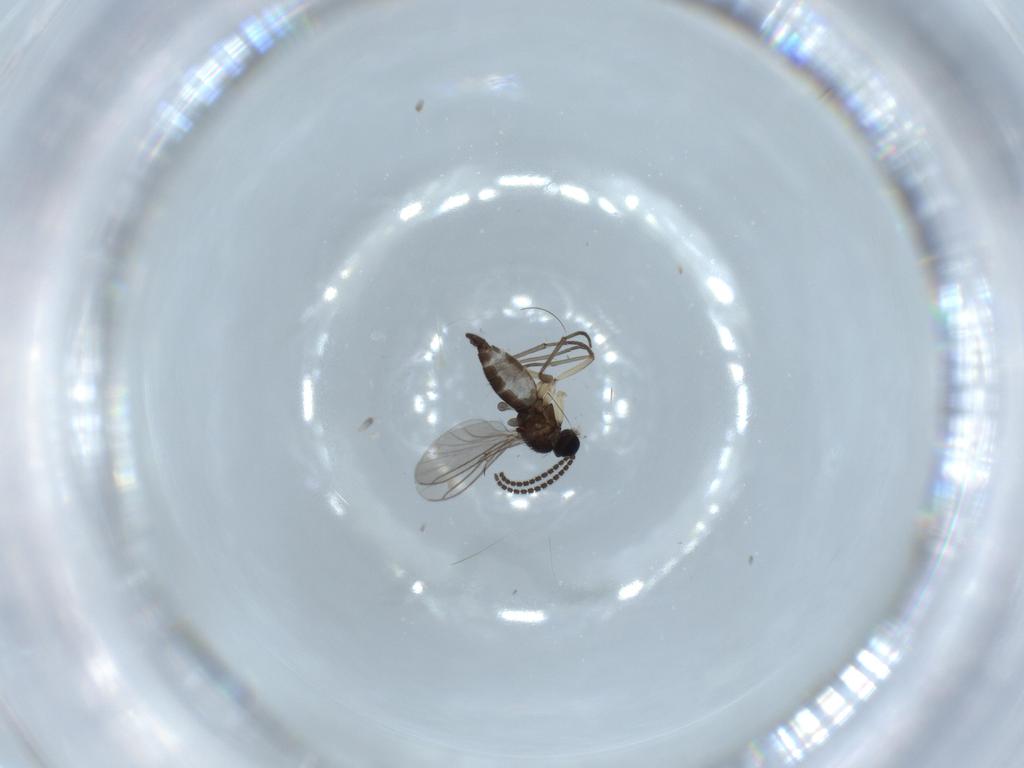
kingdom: Animalia
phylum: Arthropoda
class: Insecta
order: Diptera
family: Sciaridae
